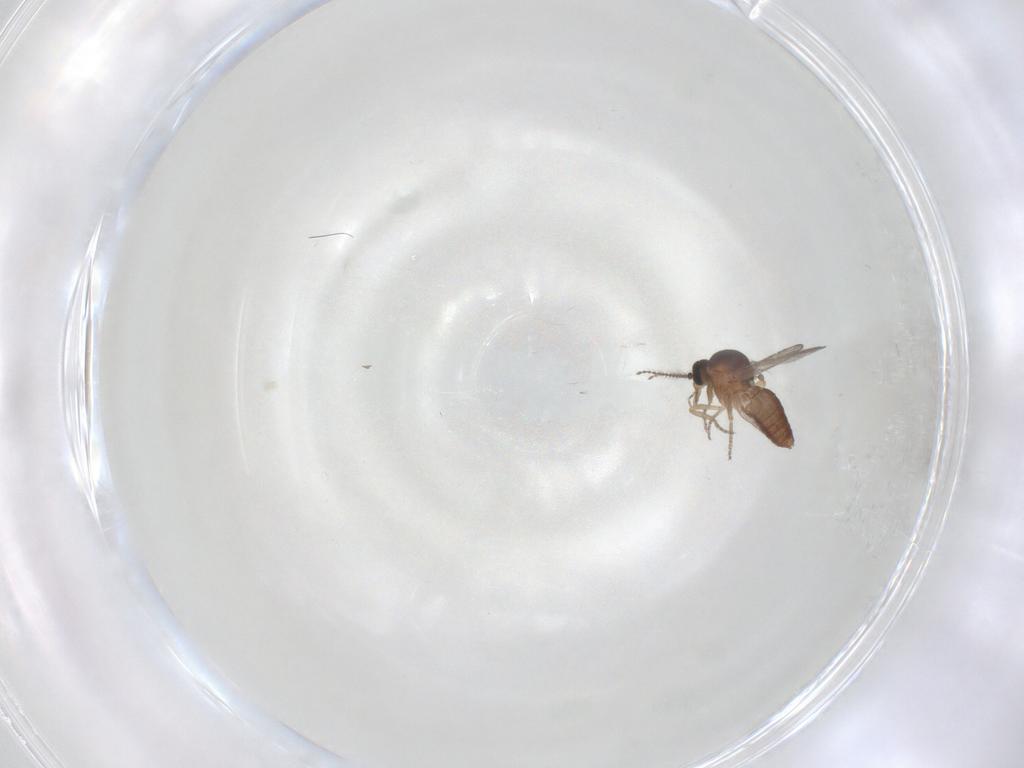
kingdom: Animalia
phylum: Arthropoda
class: Insecta
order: Diptera
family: Ceratopogonidae
